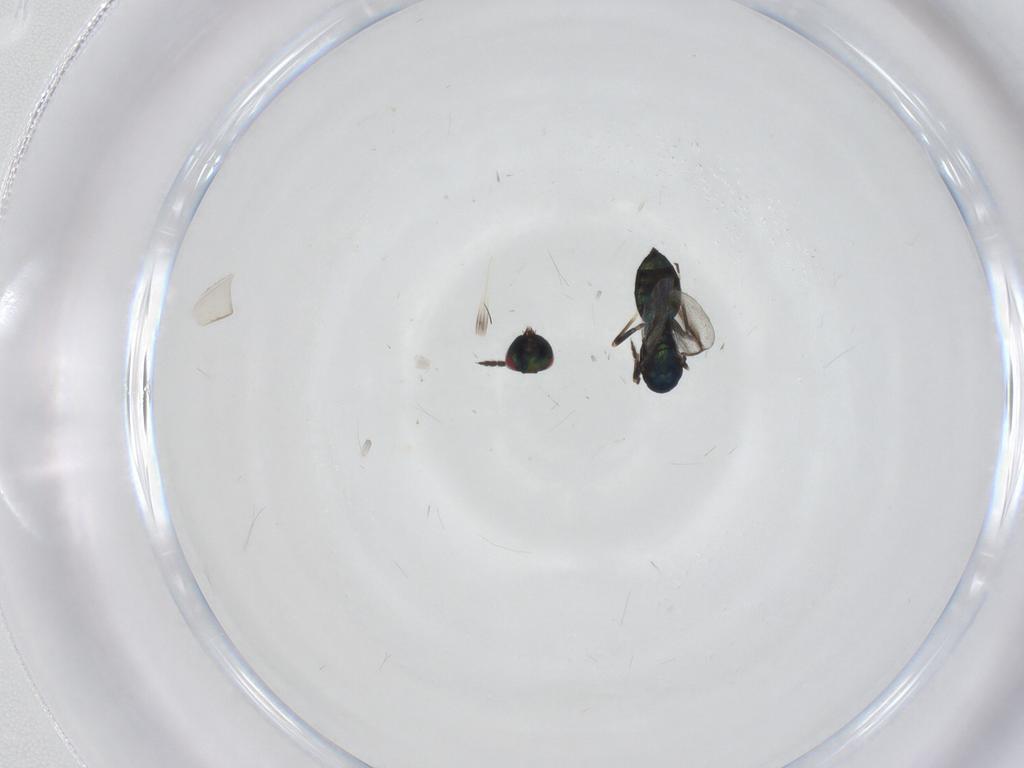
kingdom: Animalia
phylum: Arthropoda
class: Insecta
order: Hymenoptera
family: Eulophidae
